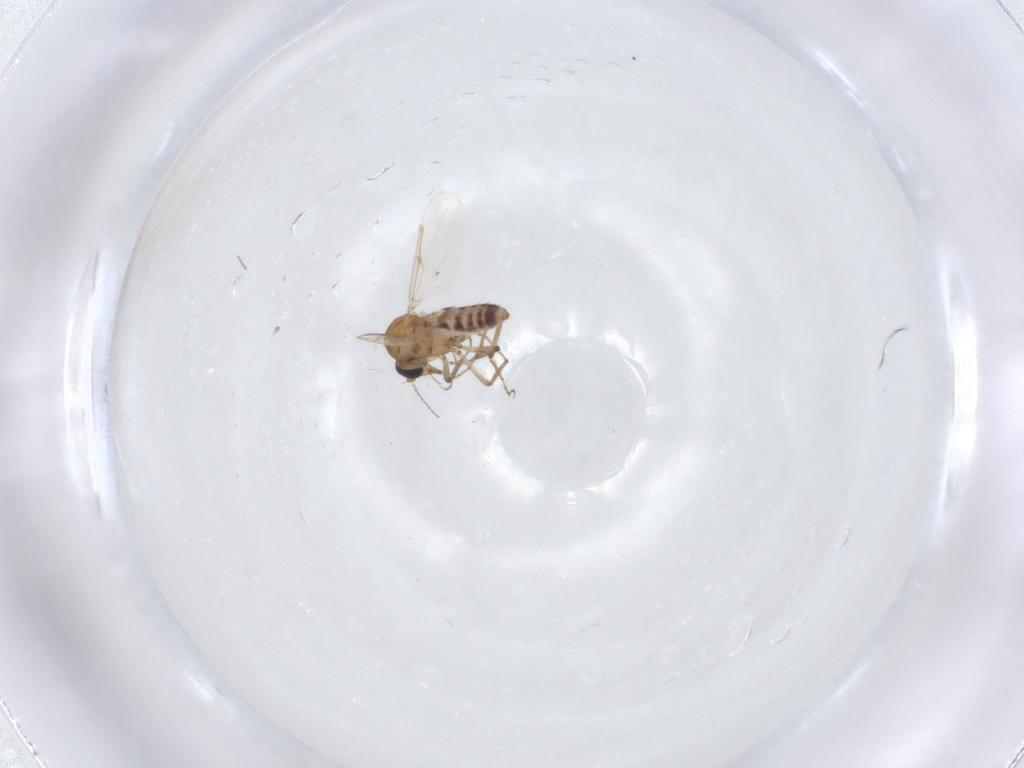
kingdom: Animalia
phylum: Arthropoda
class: Insecta
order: Diptera
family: Ceratopogonidae
